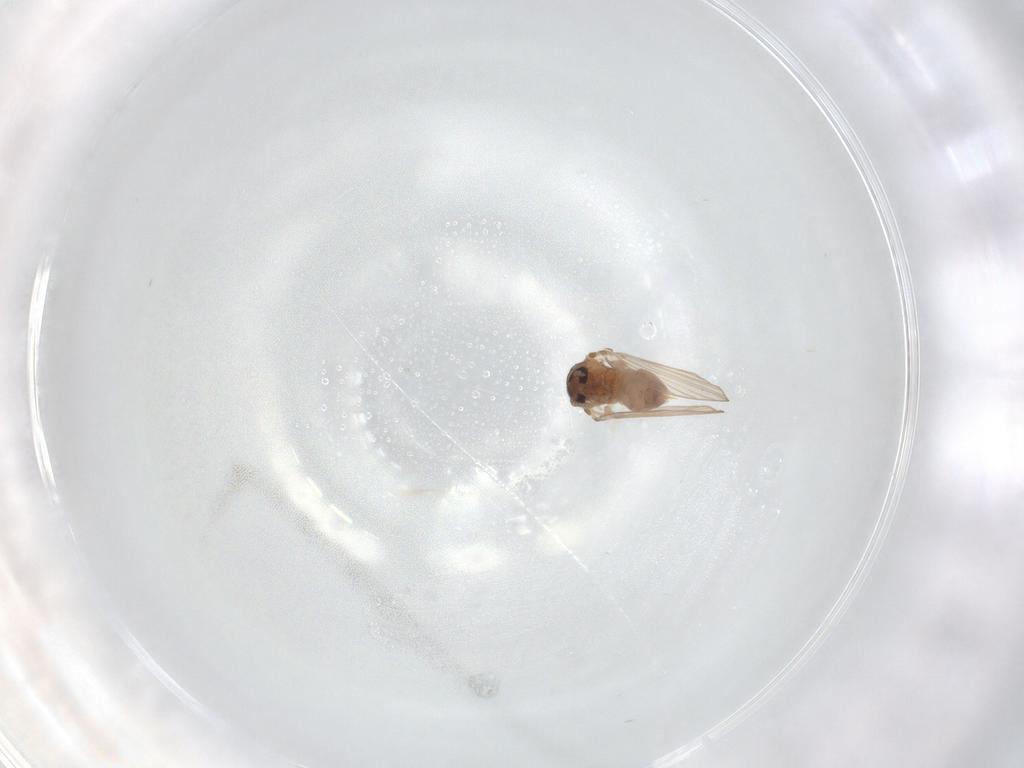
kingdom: Animalia
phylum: Arthropoda
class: Insecta
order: Diptera
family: Psychodidae
